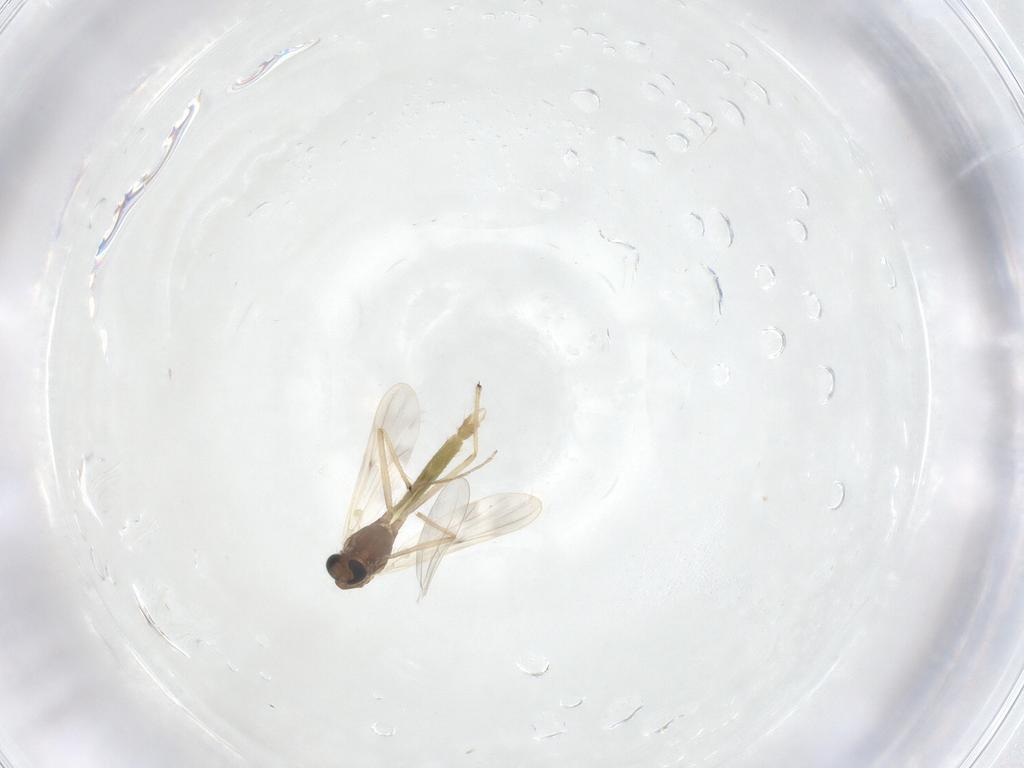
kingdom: Animalia
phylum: Arthropoda
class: Insecta
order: Diptera
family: Chironomidae
